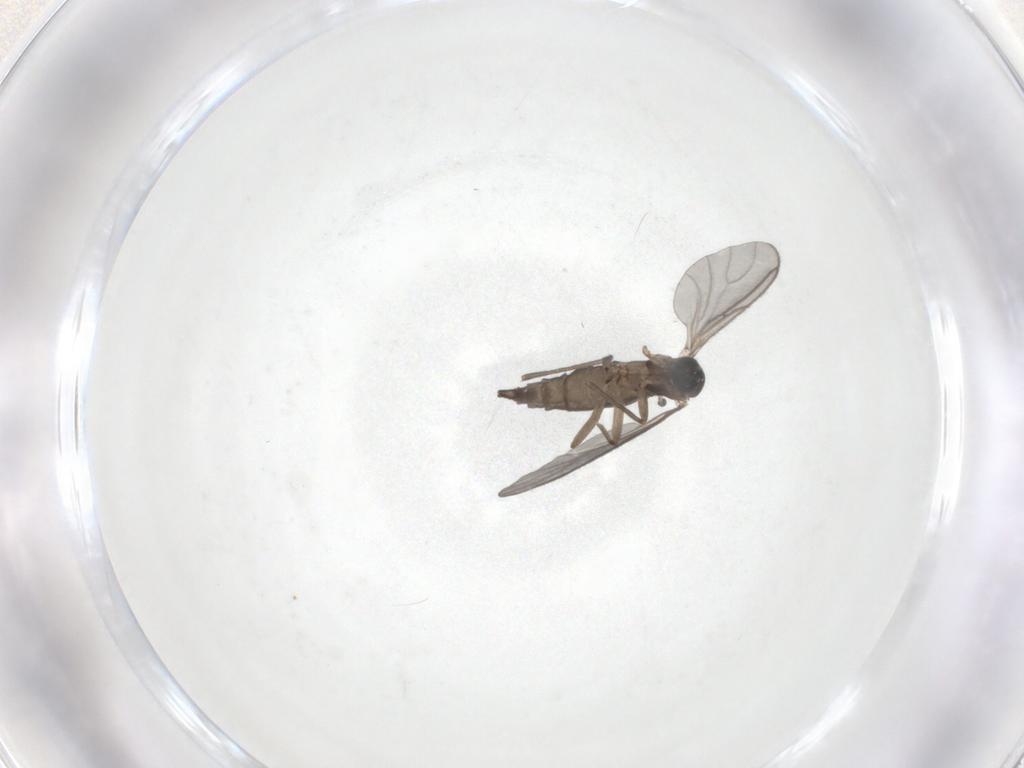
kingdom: Animalia
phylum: Arthropoda
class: Insecta
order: Diptera
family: Sciaridae
